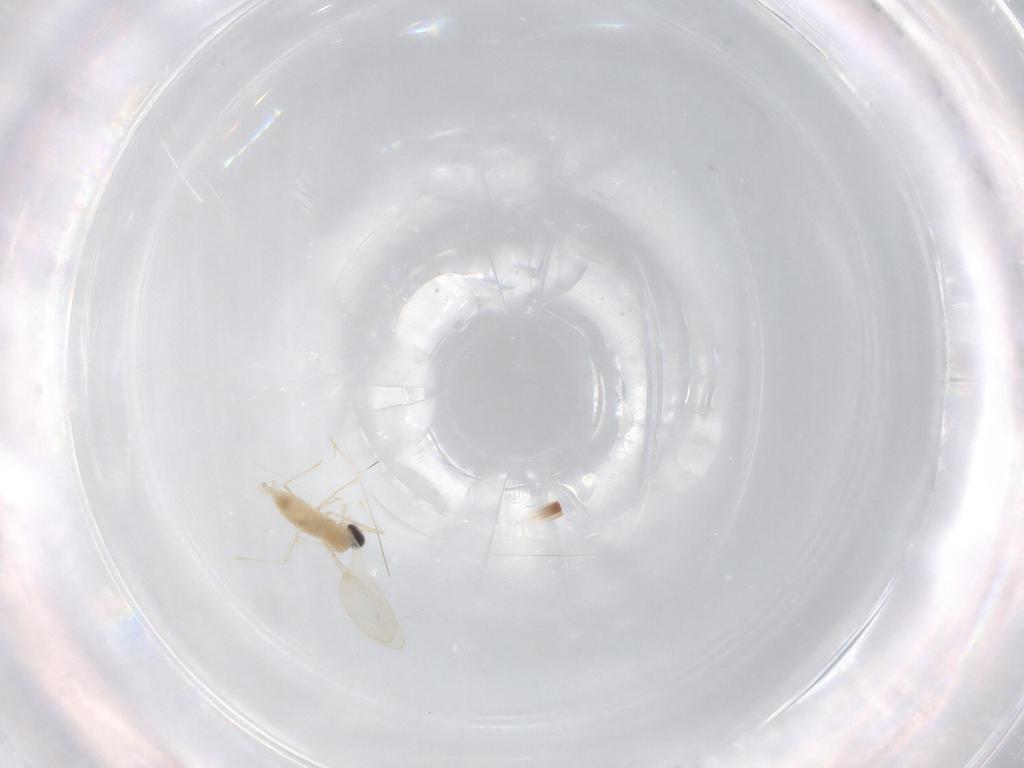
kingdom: Animalia
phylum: Arthropoda
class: Insecta
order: Diptera
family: Cecidomyiidae
